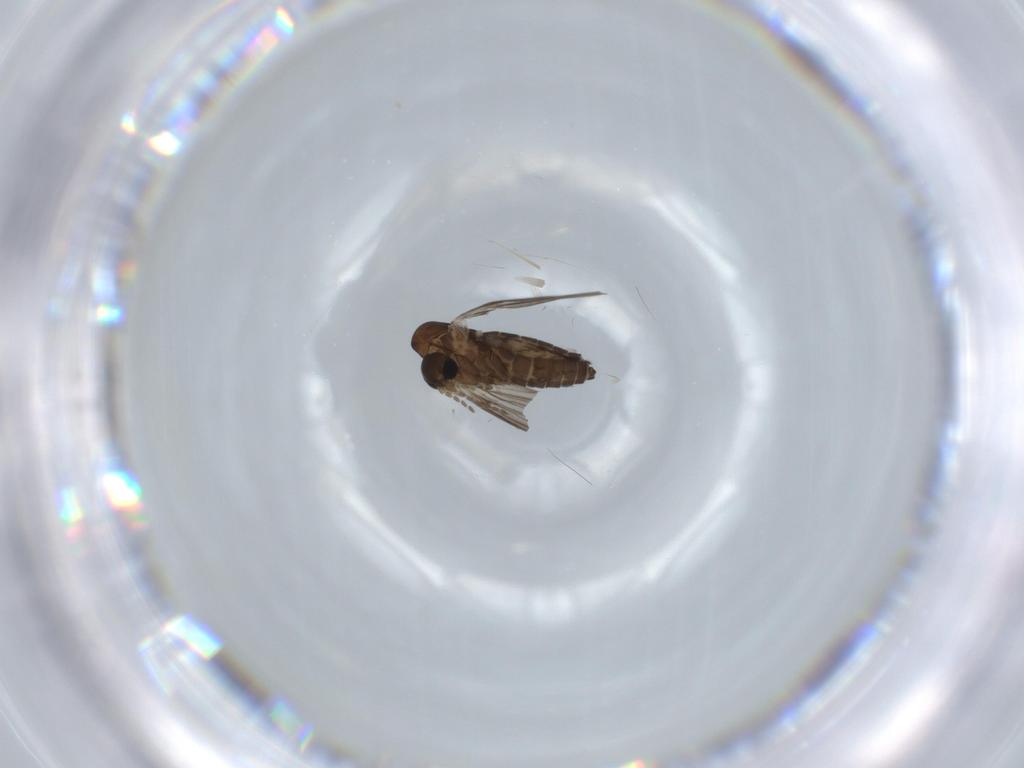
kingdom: Animalia
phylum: Arthropoda
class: Insecta
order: Diptera
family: Psychodidae
